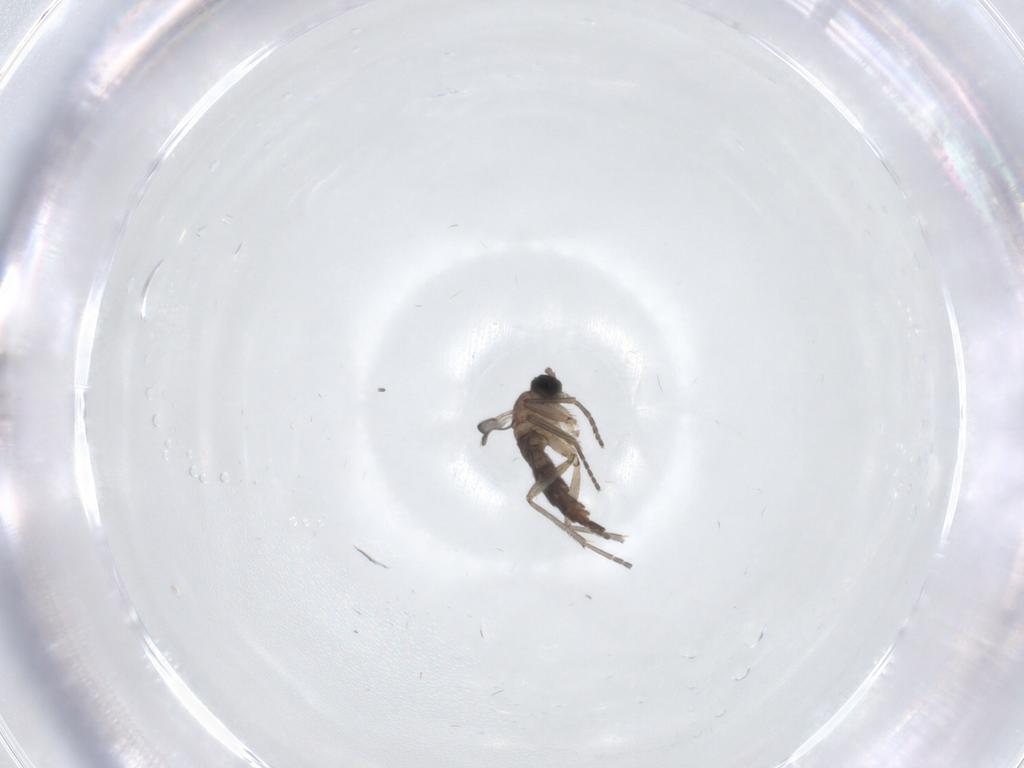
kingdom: Animalia
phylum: Arthropoda
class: Insecta
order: Diptera
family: Sciaridae
